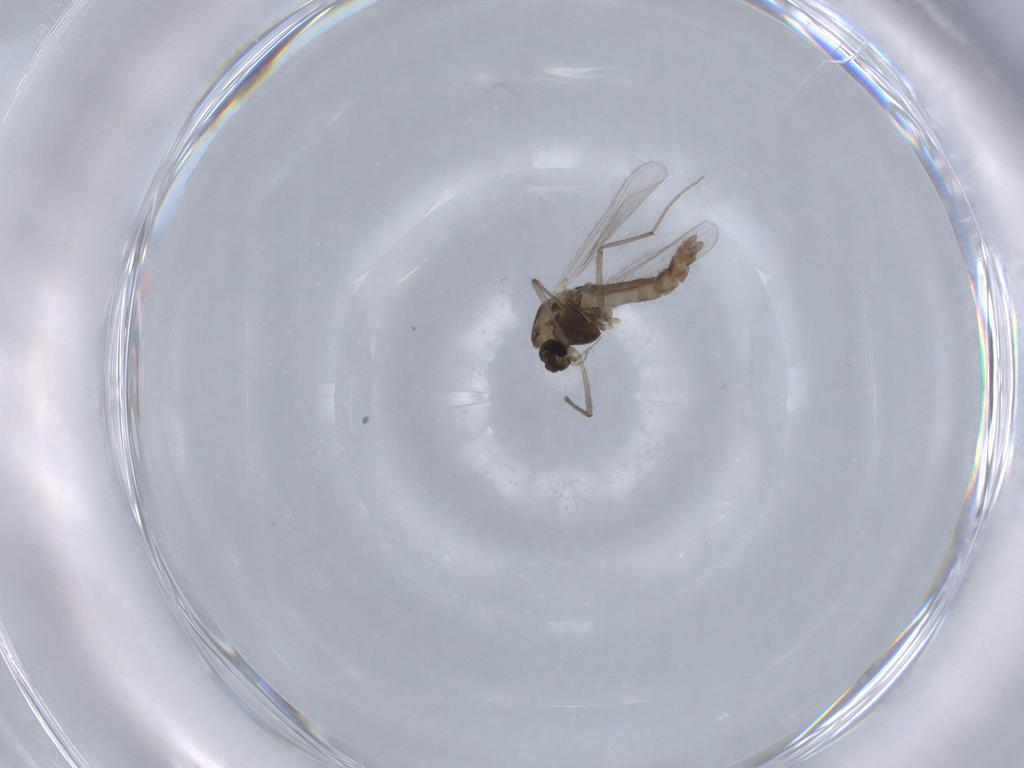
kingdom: Animalia
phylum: Arthropoda
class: Insecta
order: Diptera
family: Chironomidae
